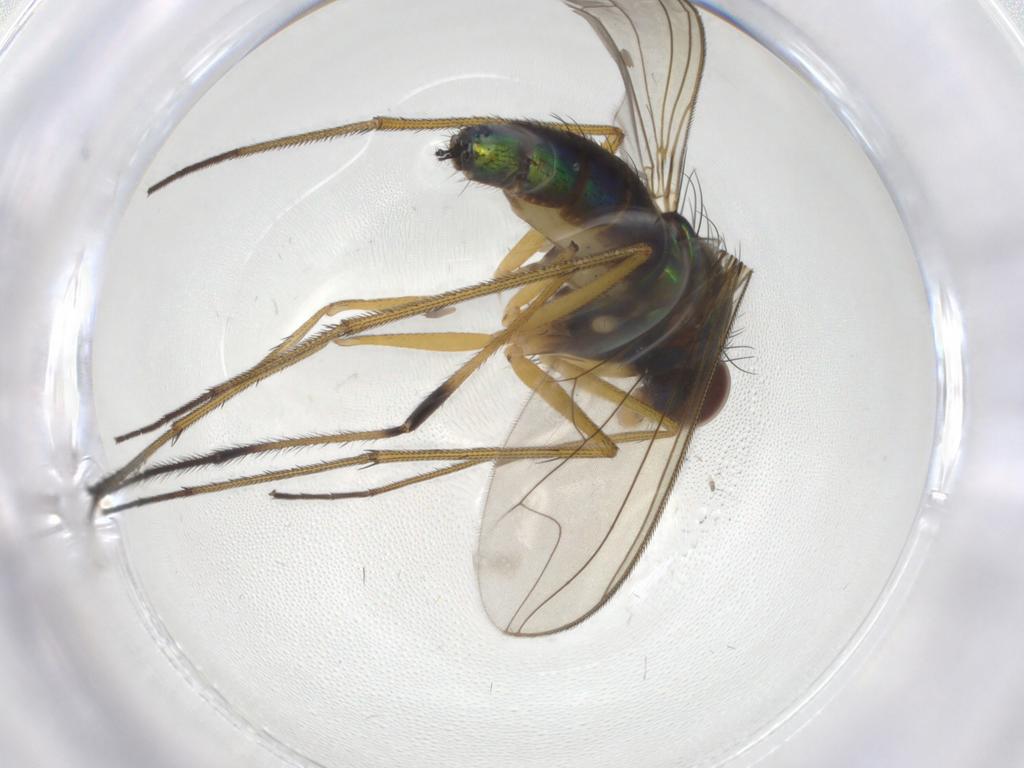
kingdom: Animalia
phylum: Arthropoda
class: Insecta
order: Diptera
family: Dolichopodidae
